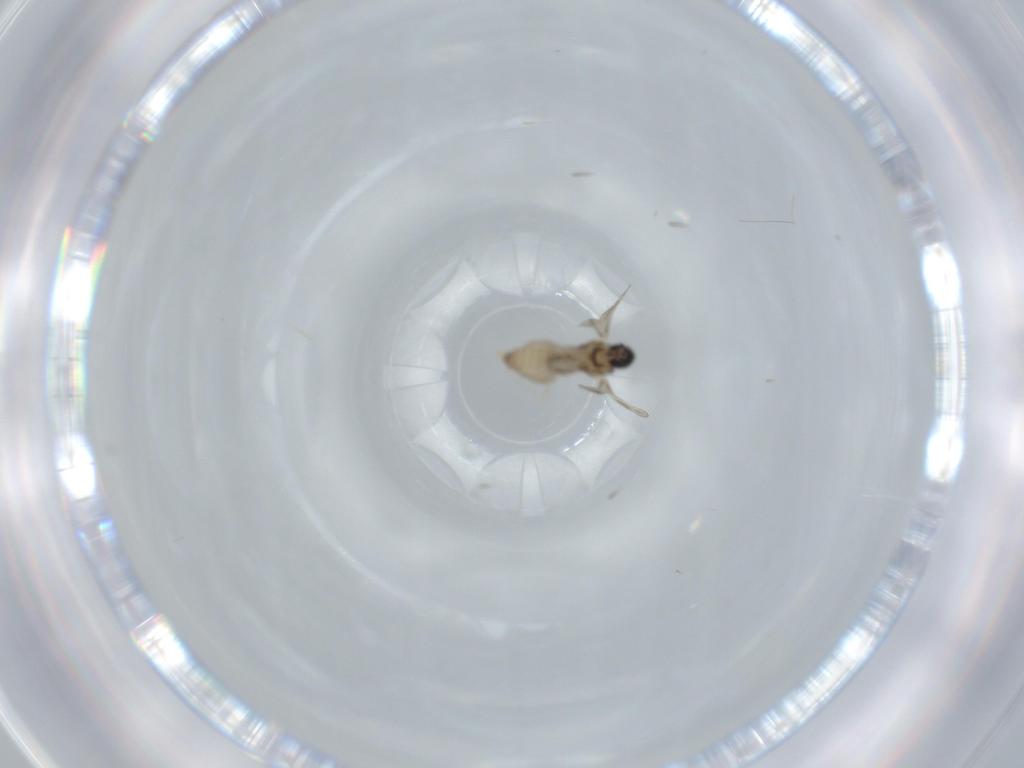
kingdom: Animalia
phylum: Arthropoda
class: Insecta
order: Diptera
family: Cecidomyiidae
